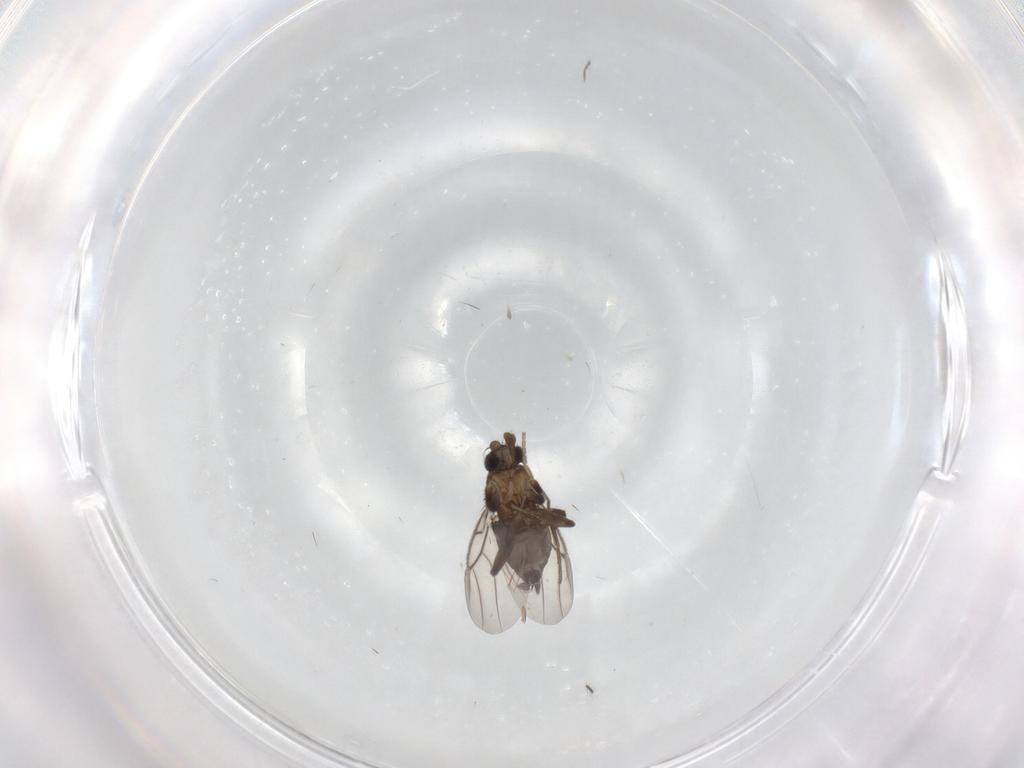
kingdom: Animalia
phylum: Arthropoda
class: Insecta
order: Diptera
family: Phoridae
